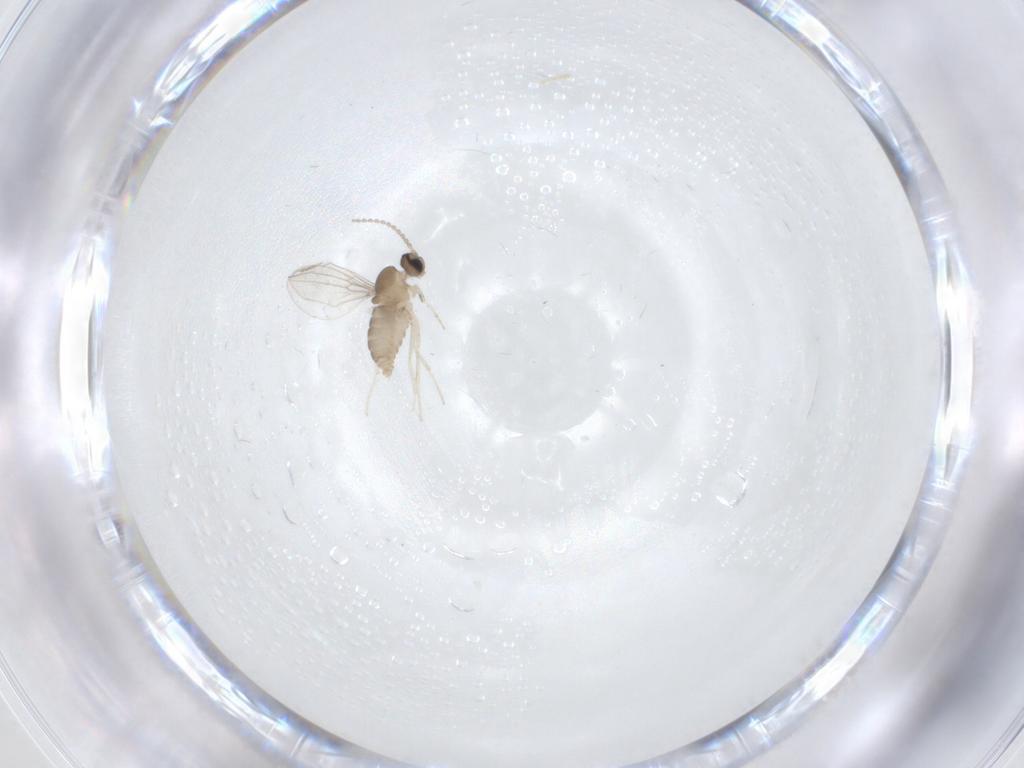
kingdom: Animalia
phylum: Arthropoda
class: Insecta
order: Diptera
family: Cecidomyiidae
